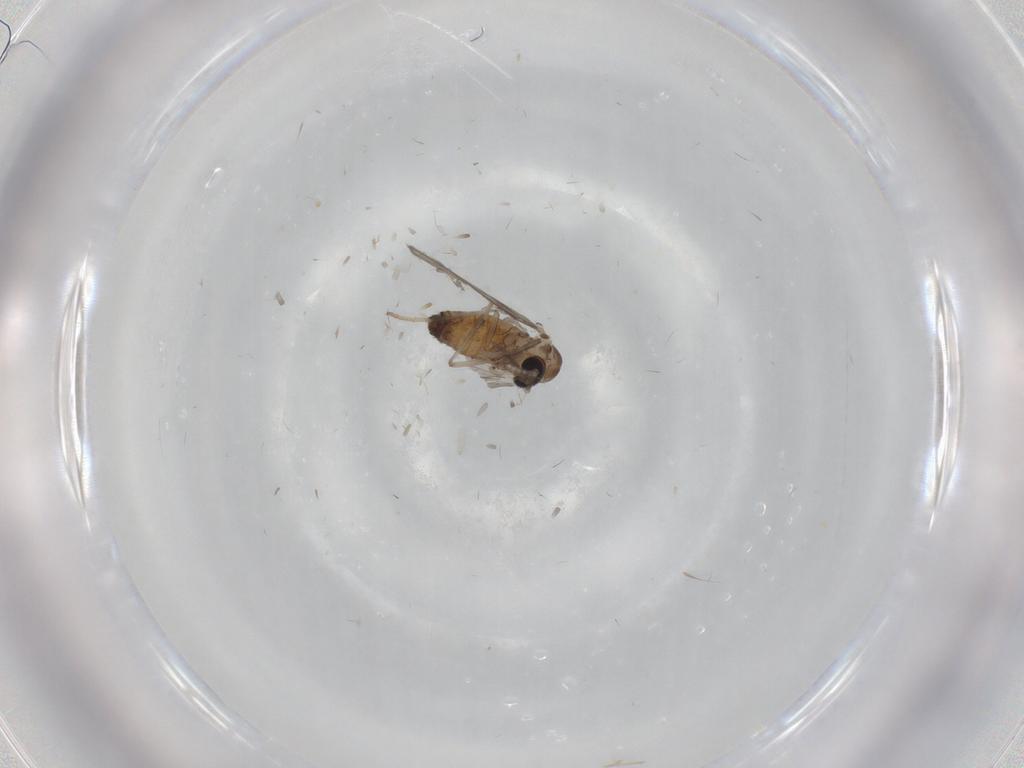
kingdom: Animalia
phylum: Arthropoda
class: Insecta
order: Diptera
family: Psychodidae
